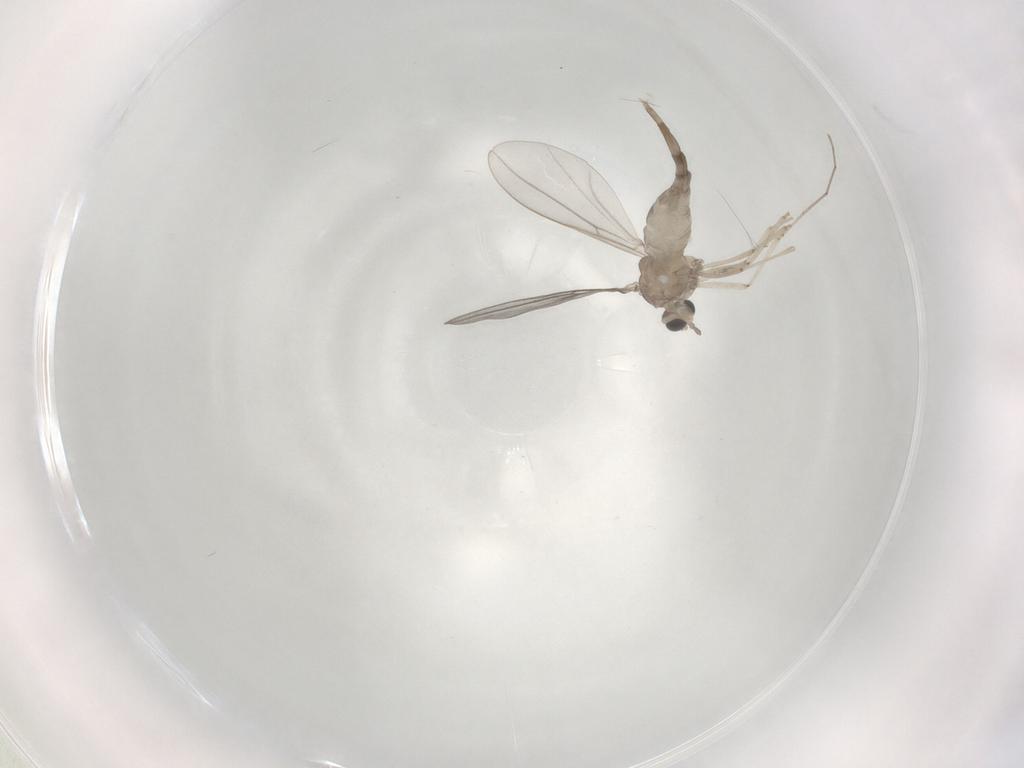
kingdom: Animalia
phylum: Arthropoda
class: Insecta
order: Diptera
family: Cecidomyiidae
